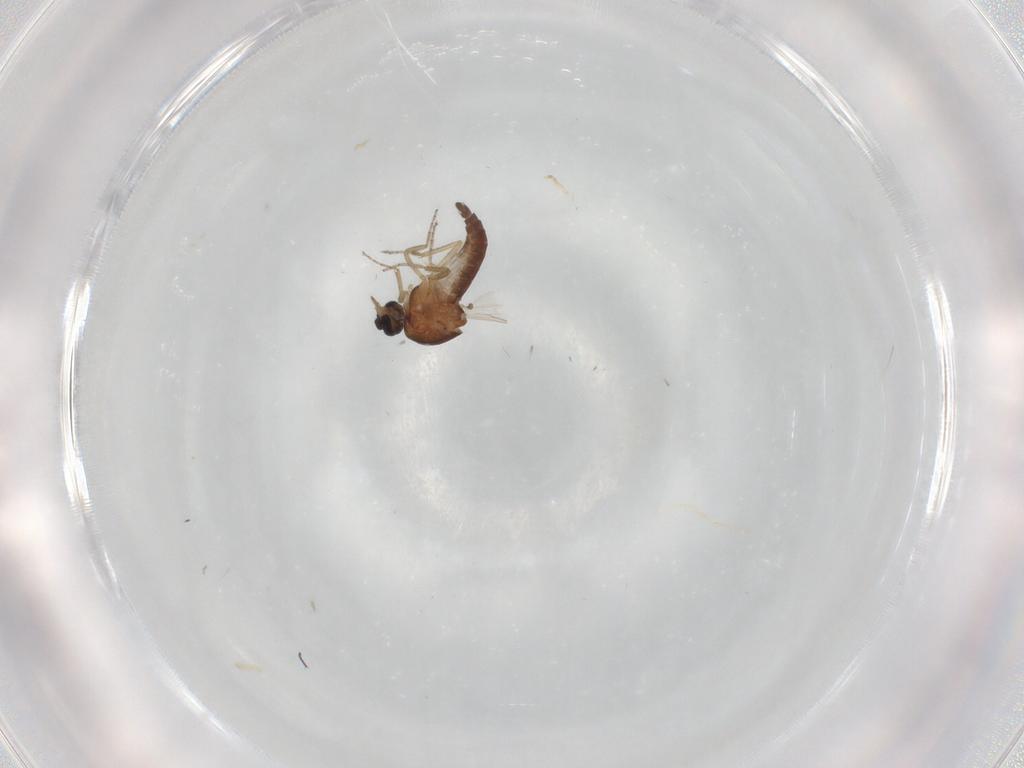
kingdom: Animalia
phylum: Arthropoda
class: Insecta
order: Diptera
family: Ceratopogonidae
